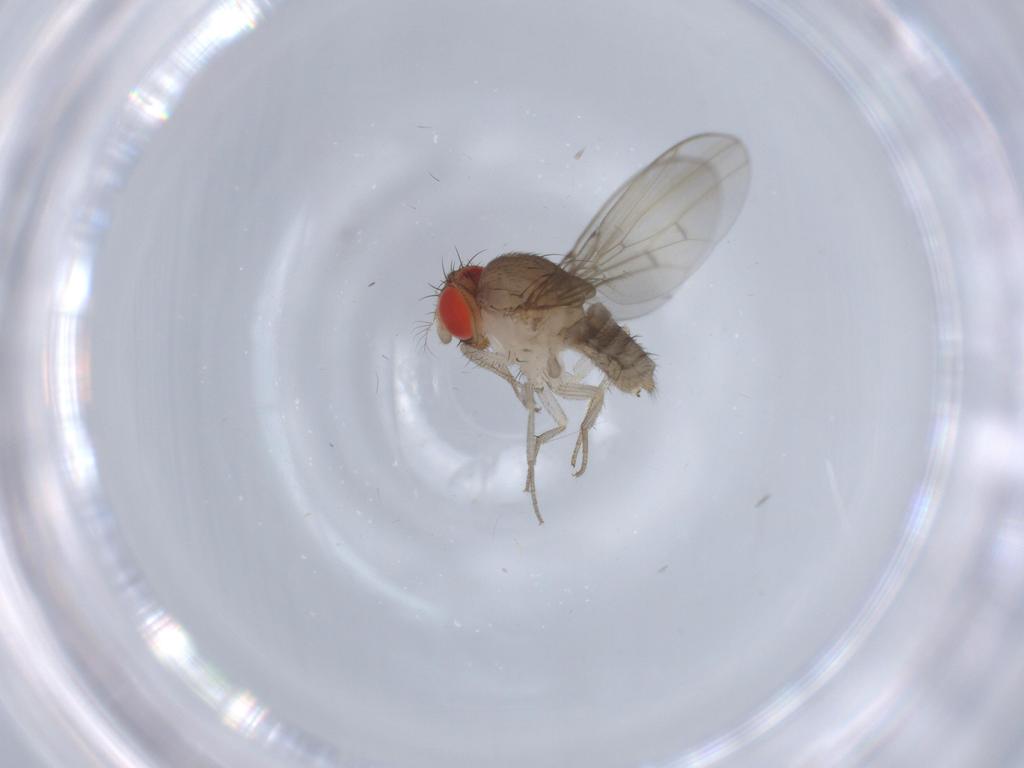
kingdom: Animalia
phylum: Arthropoda
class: Insecta
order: Diptera
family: Drosophilidae
